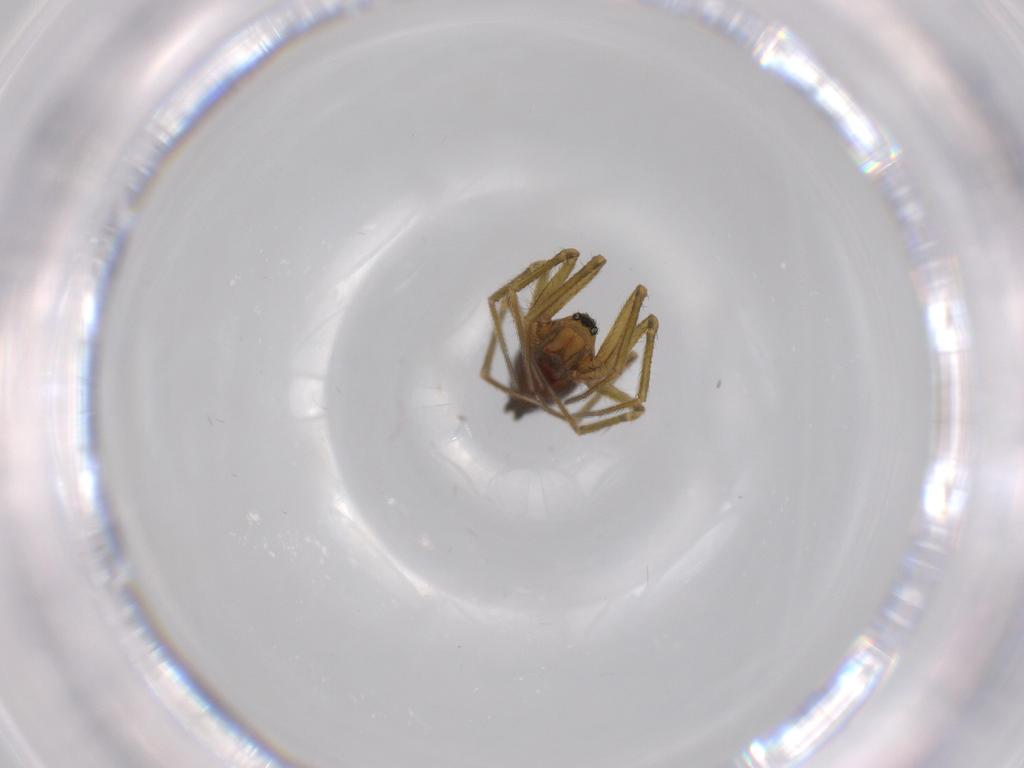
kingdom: Animalia
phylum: Arthropoda
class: Arachnida
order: Araneae
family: Linyphiidae
